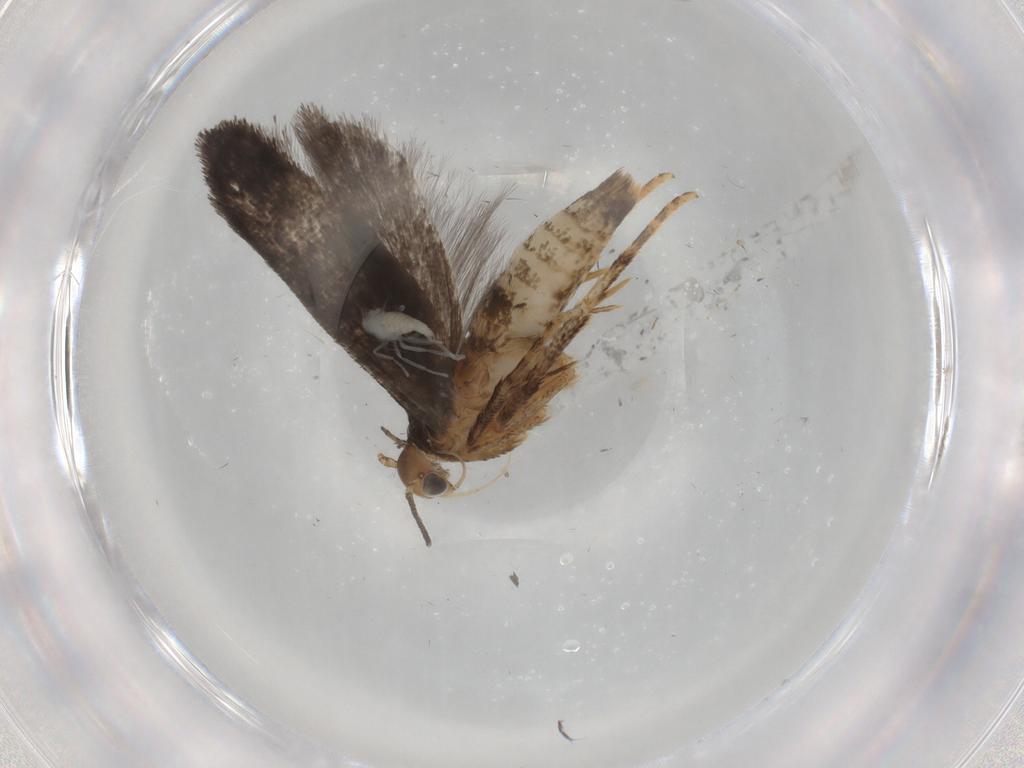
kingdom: Animalia
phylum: Arthropoda
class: Insecta
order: Lepidoptera
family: Gelechiidae
